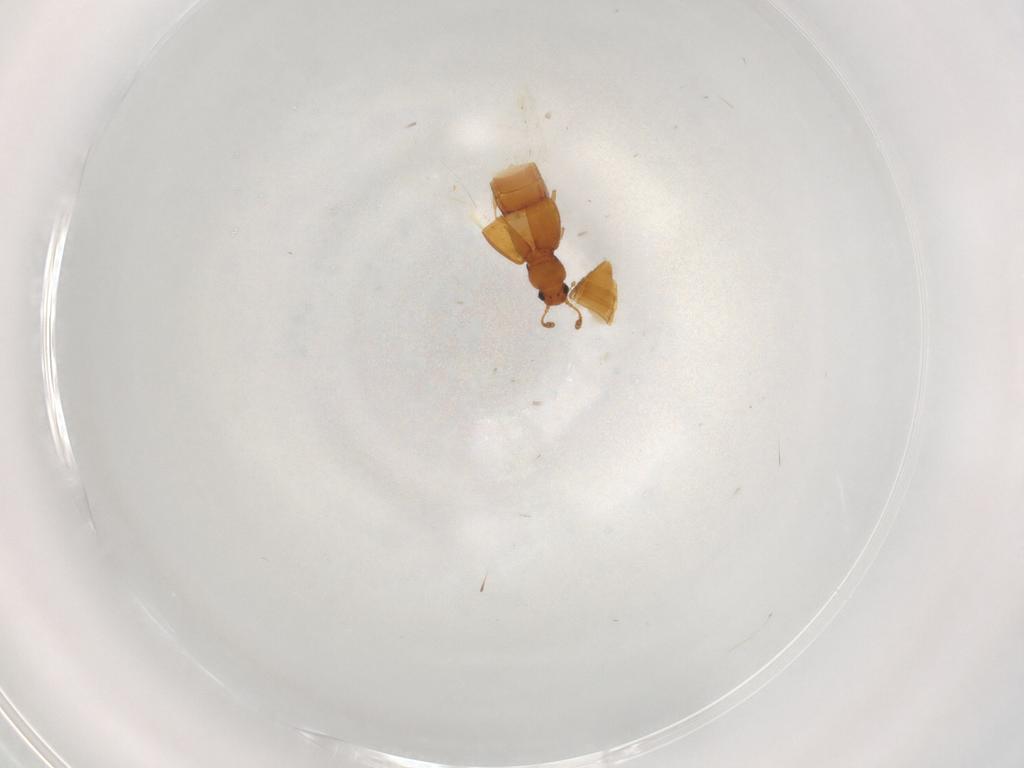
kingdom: Animalia
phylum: Arthropoda
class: Insecta
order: Coleoptera
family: Staphylinidae
